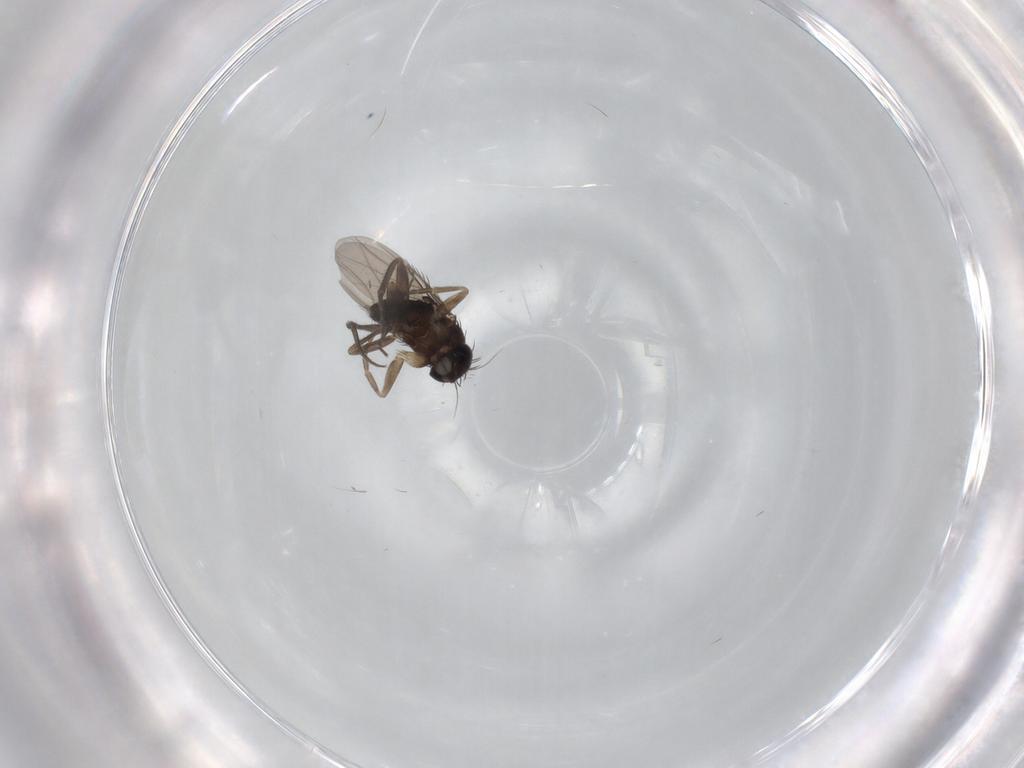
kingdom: Animalia
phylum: Arthropoda
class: Insecta
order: Diptera
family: Phoridae
